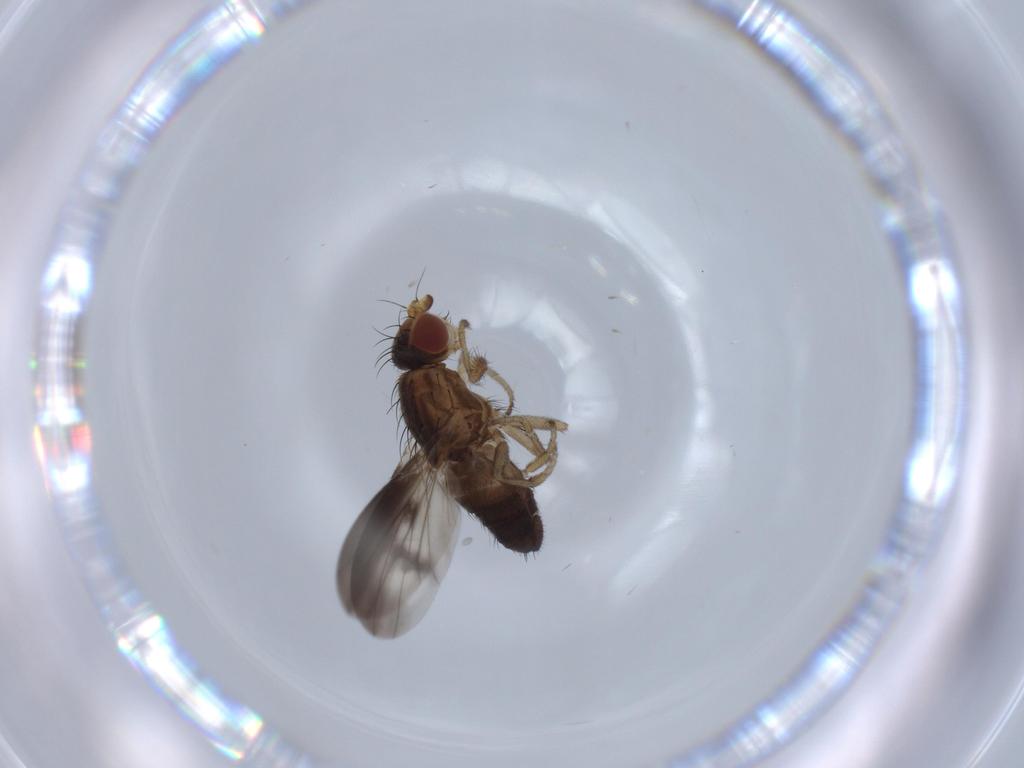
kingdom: Animalia
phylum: Arthropoda
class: Insecta
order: Diptera
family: Heleomyzidae
